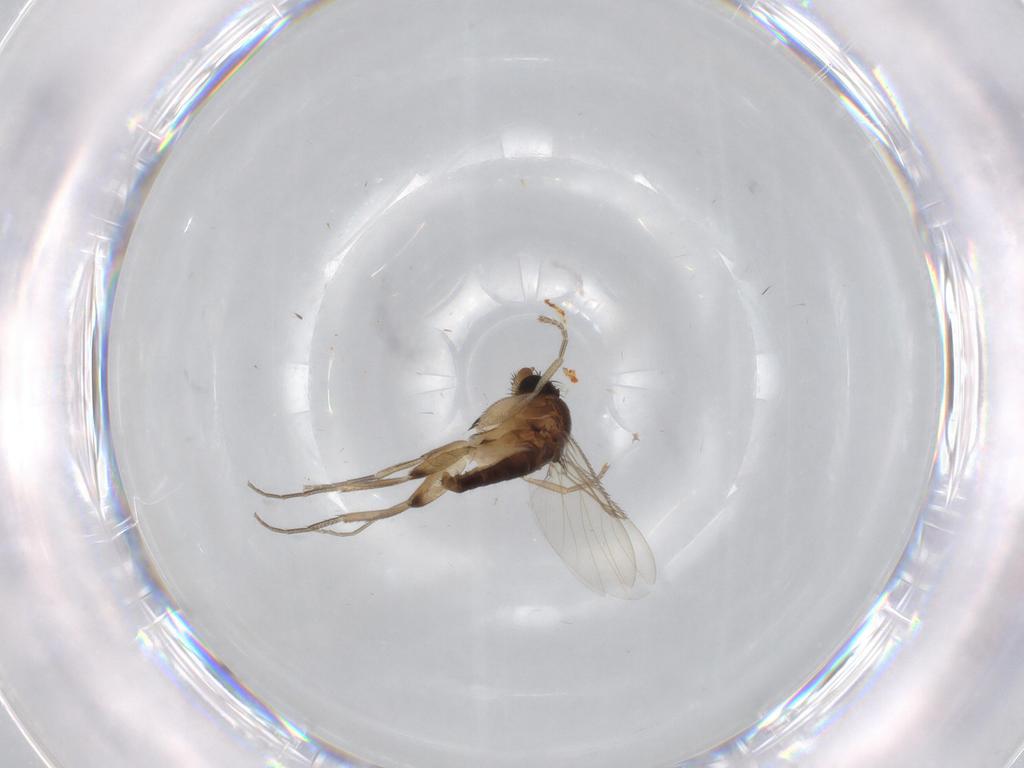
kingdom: Animalia
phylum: Arthropoda
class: Insecta
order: Diptera
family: Phoridae
